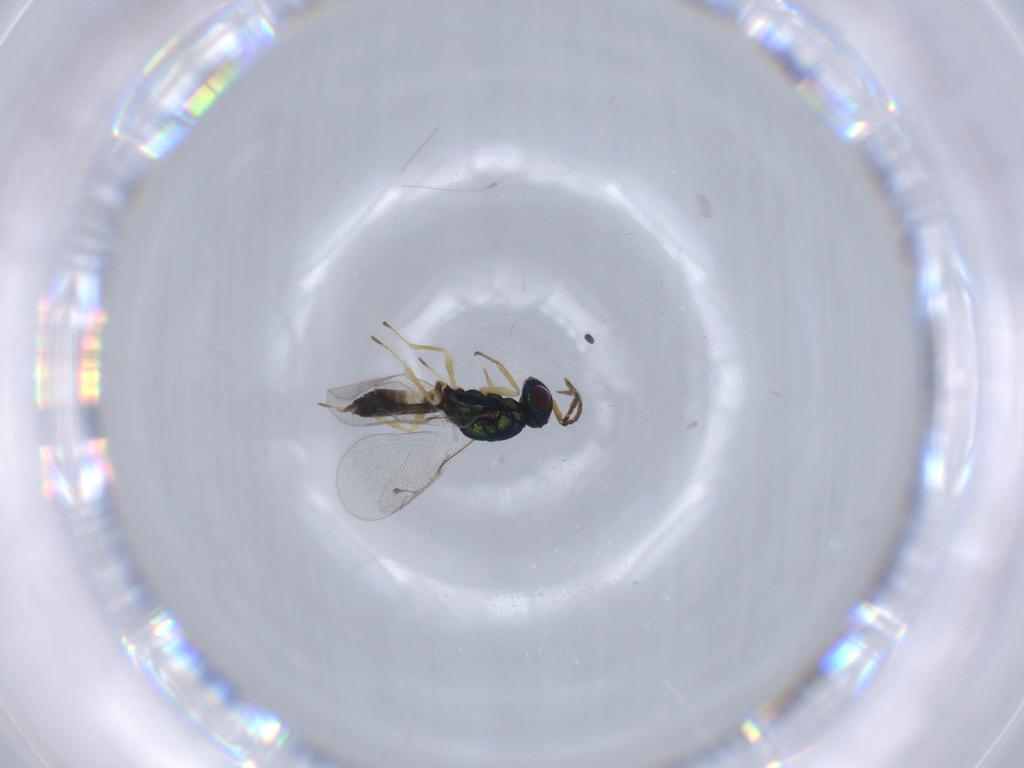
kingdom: Animalia
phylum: Arthropoda
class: Insecta
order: Hymenoptera
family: Pteromalidae
